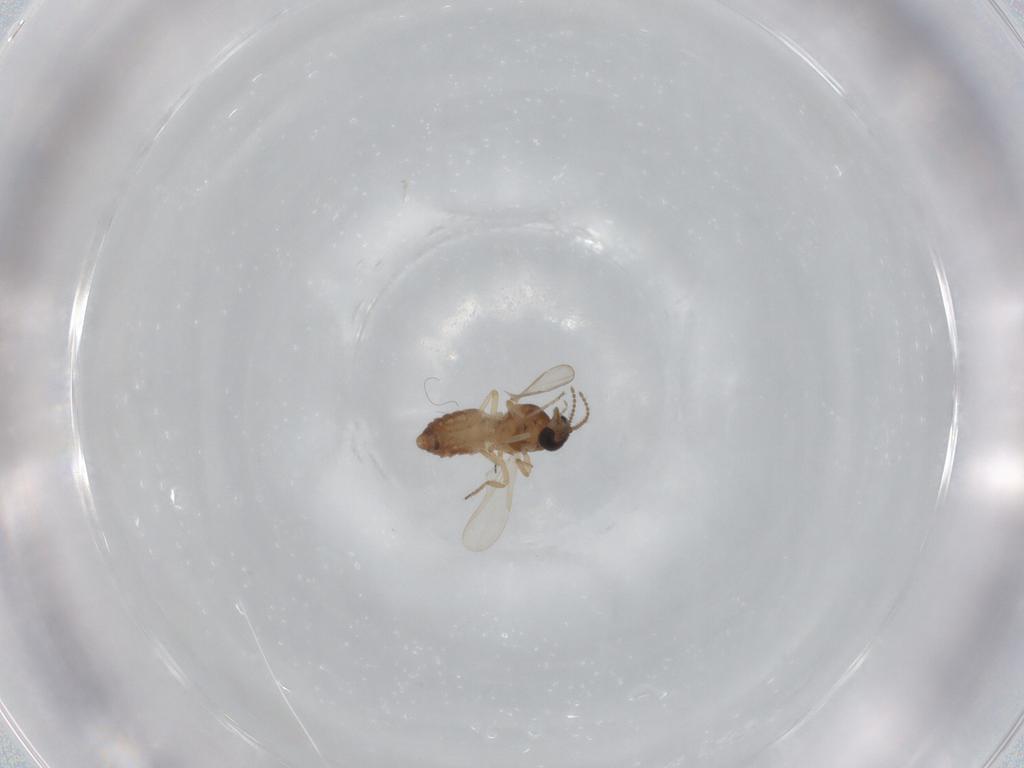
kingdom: Animalia
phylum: Arthropoda
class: Insecta
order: Diptera
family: Ceratopogonidae
